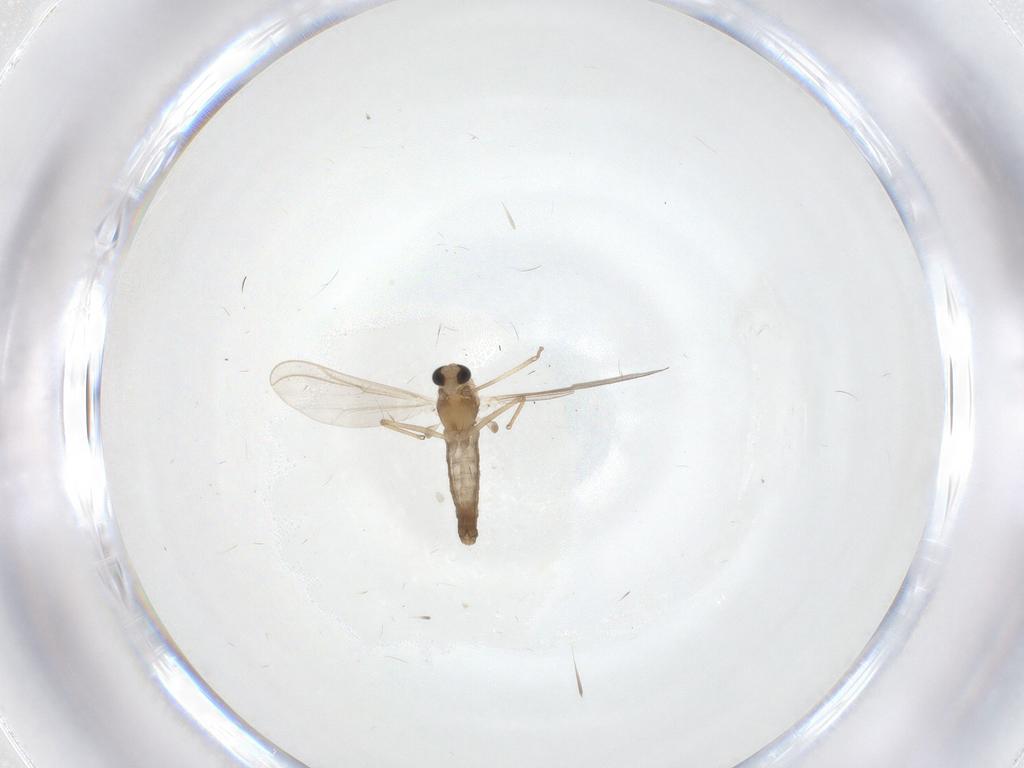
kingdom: Animalia
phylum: Arthropoda
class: Insecta
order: Diptera
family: Chironomidae
